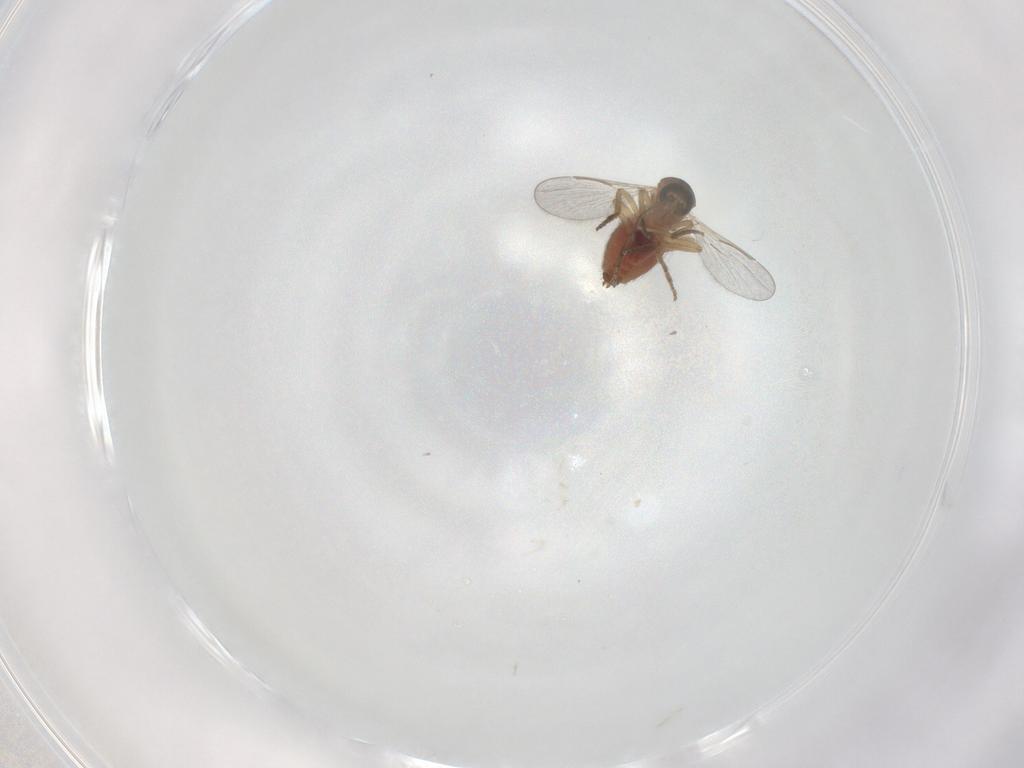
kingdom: Animalia
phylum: Arthropoda
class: Insecta
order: Diptera
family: Ceratopogonidae
